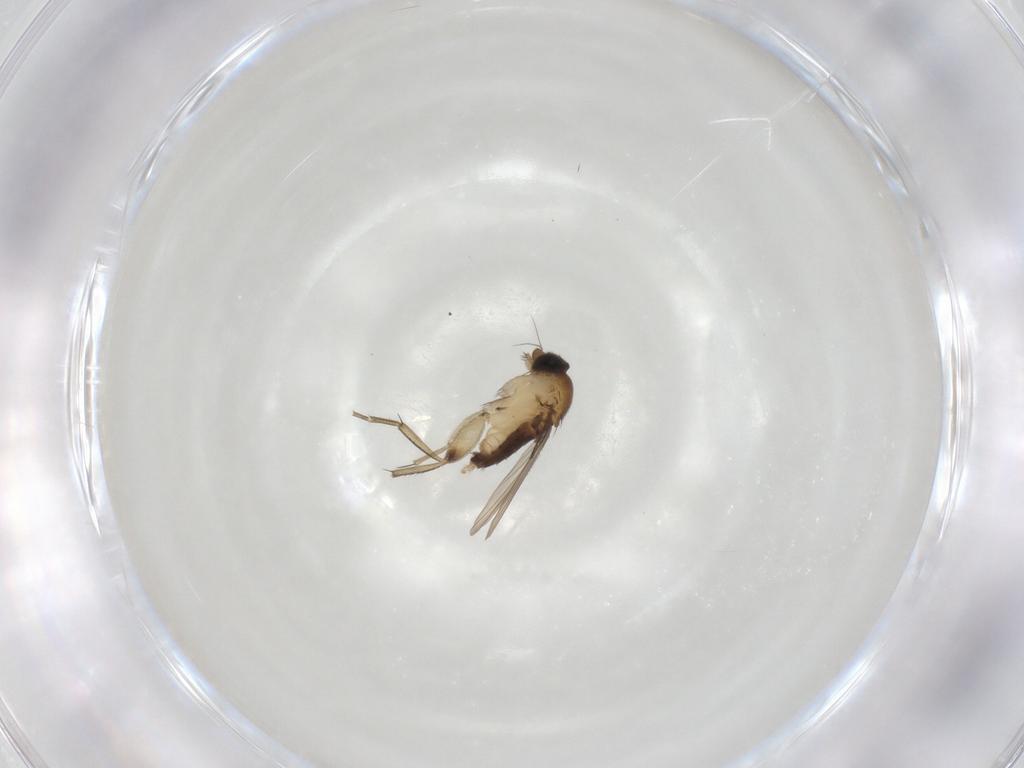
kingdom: Animalia
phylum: Arthropoda
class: Insecta
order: Diptera
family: Phoridae
